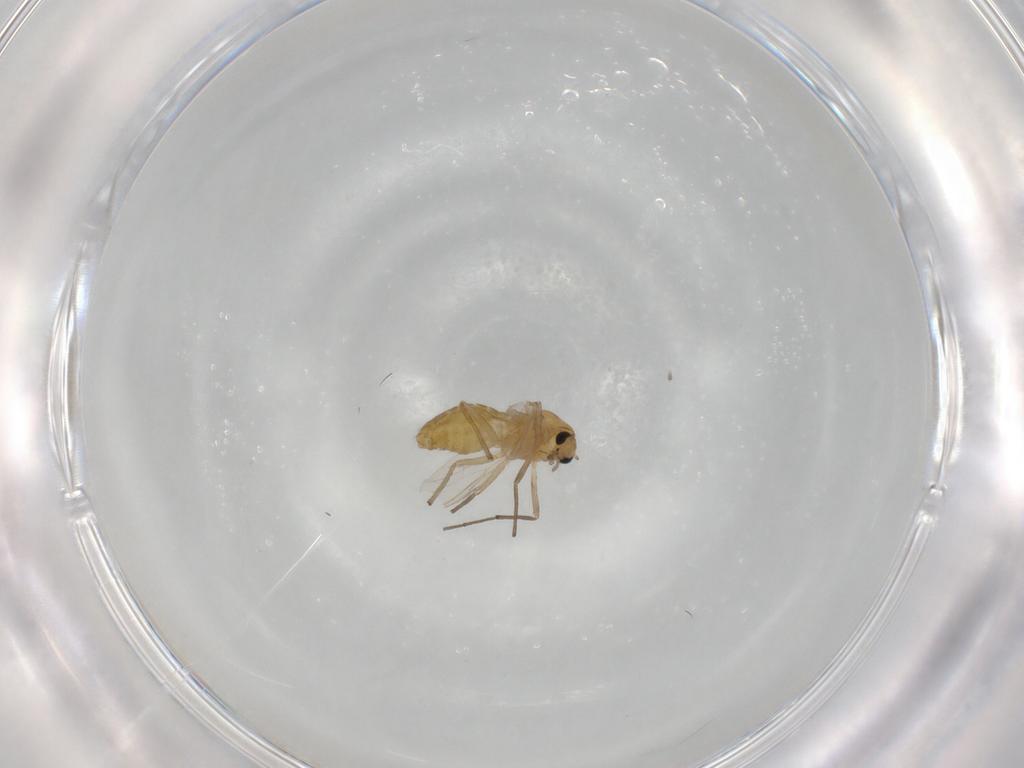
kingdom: Animalia
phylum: Arthropoda
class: Insecta
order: Diptera
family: Chironomidae
